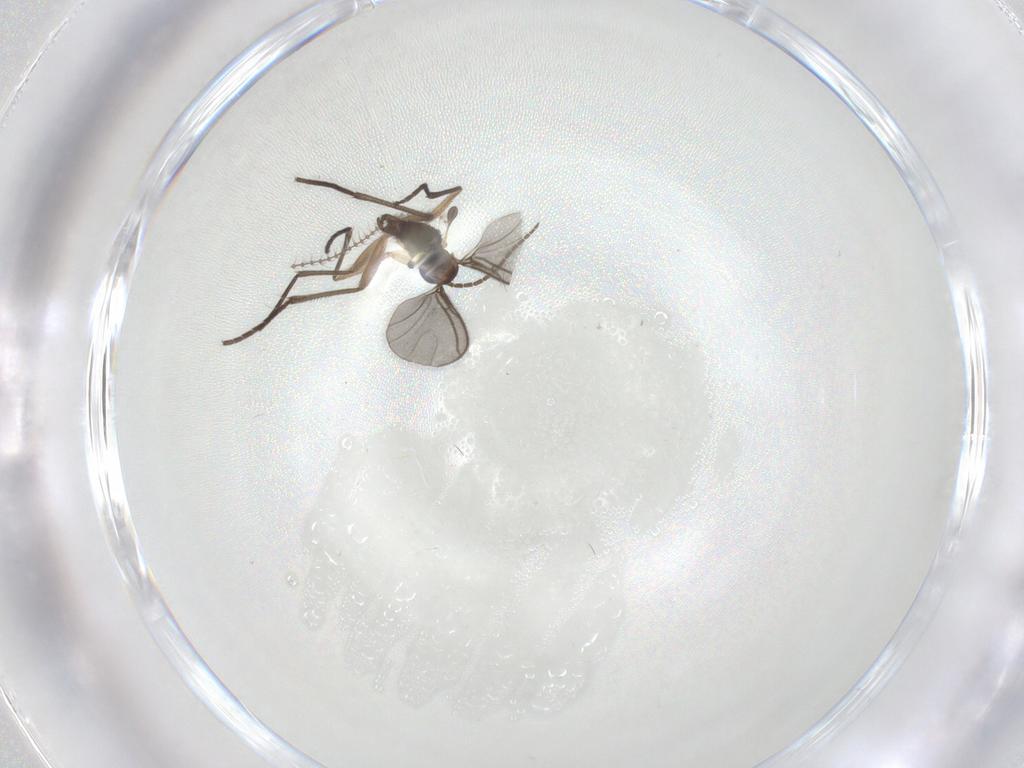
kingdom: Animalia
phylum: Arthropoda
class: Insecta
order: Diptera
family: Sciaridae
